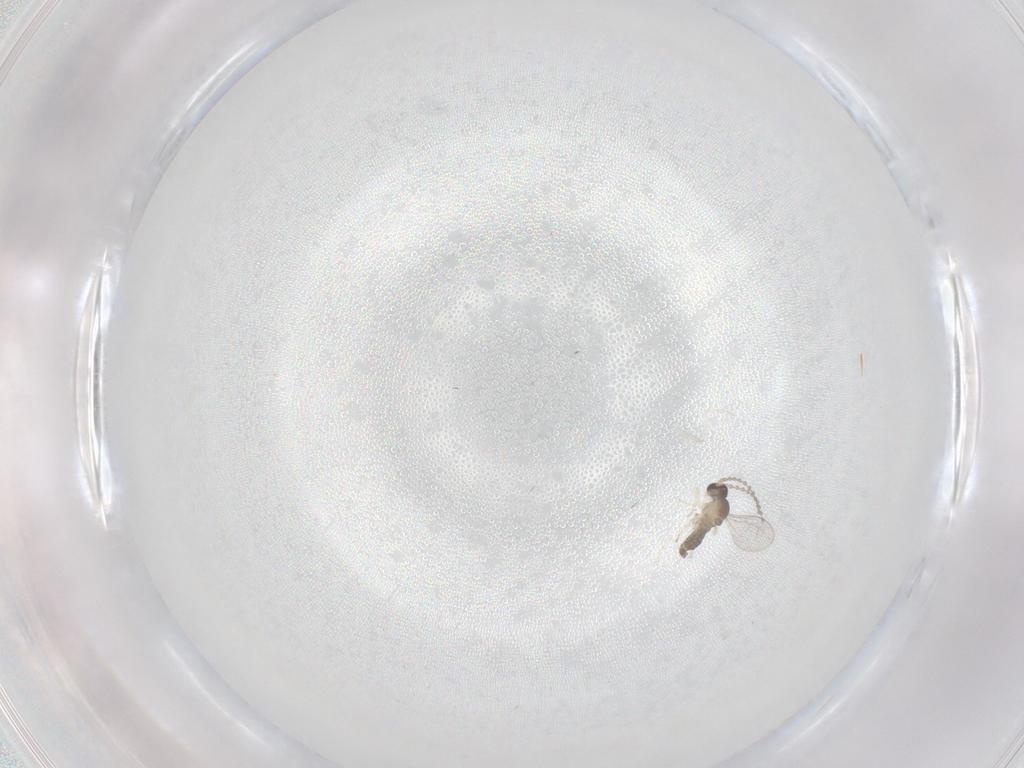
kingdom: Animalia
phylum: Arthropoda
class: Insecta
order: Diptera
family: Cecidomyiidae
